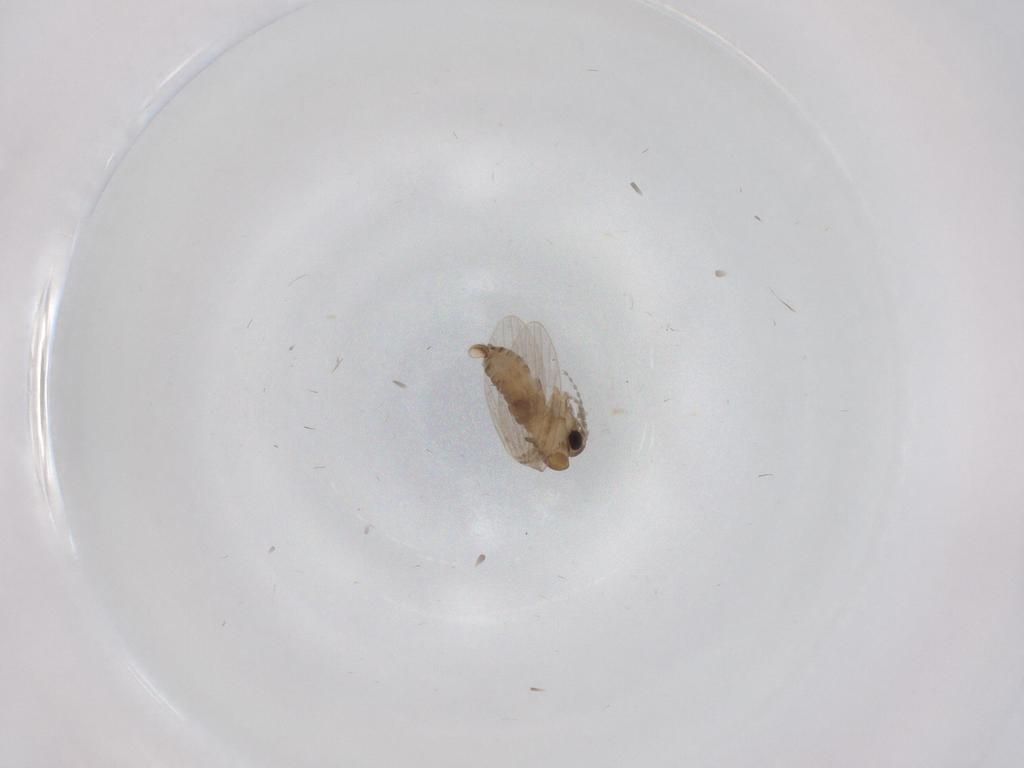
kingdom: Animalia
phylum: Arthropoda
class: Insecta
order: Diptera
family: Psychodidae
